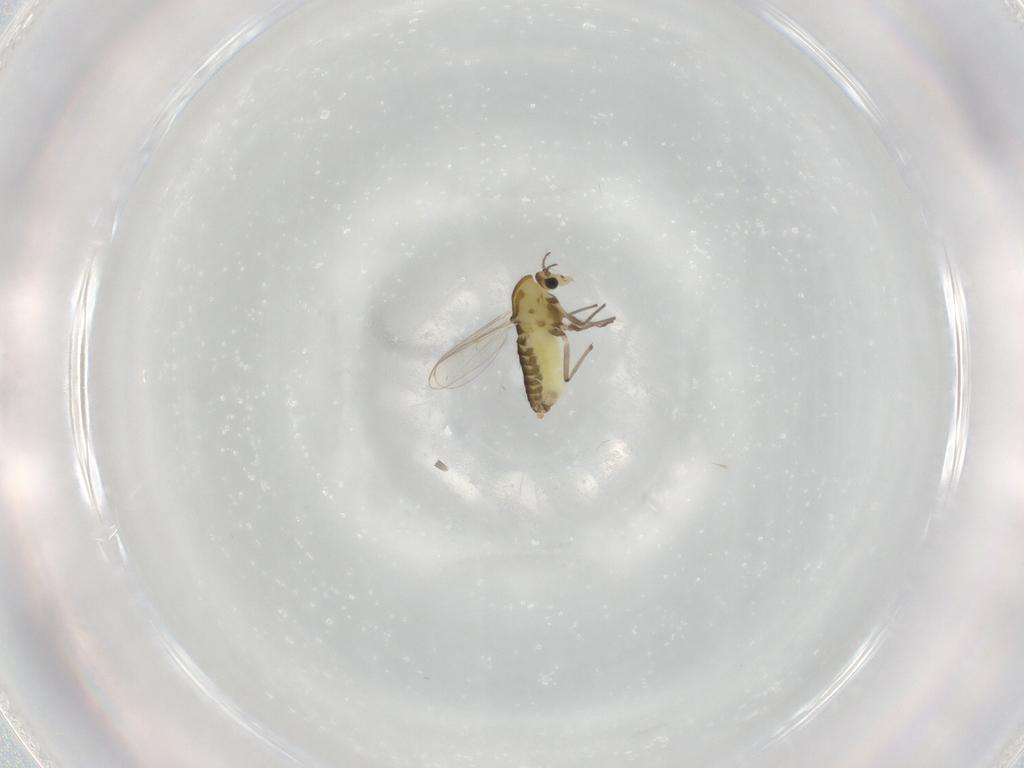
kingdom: Animalia
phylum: Arthropoda
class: Insecta
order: Diptera
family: Chironomidae
